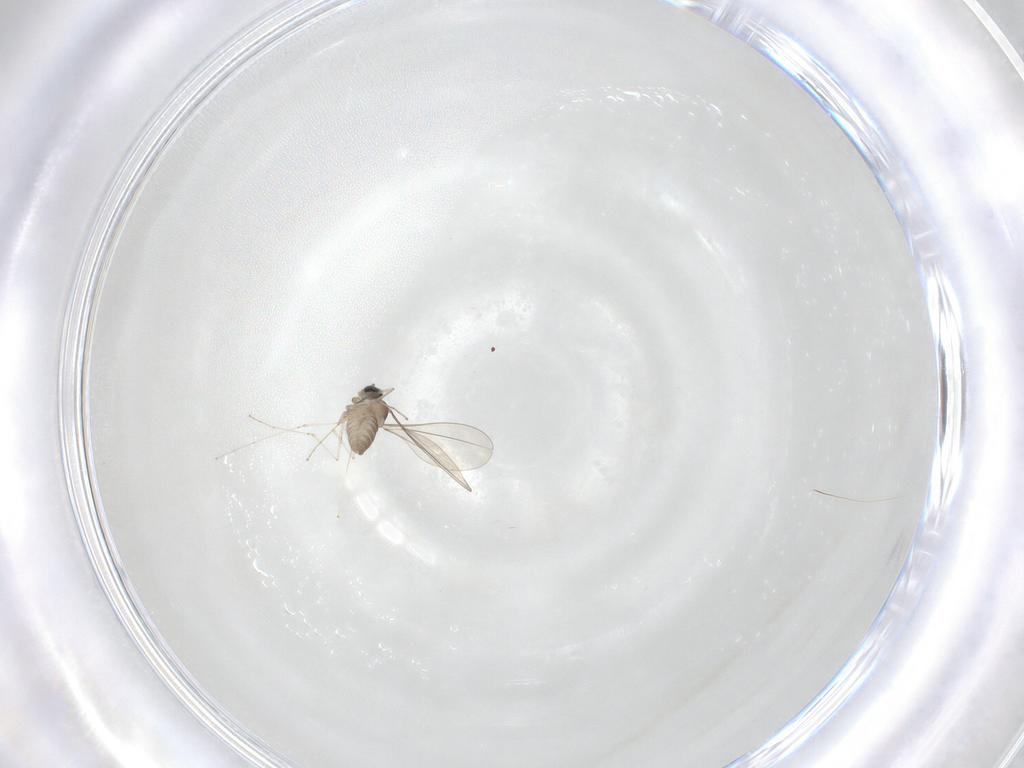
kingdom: Animalia
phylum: Arthropoda
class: Insecta
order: Diptera
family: Cecidomyiidae
